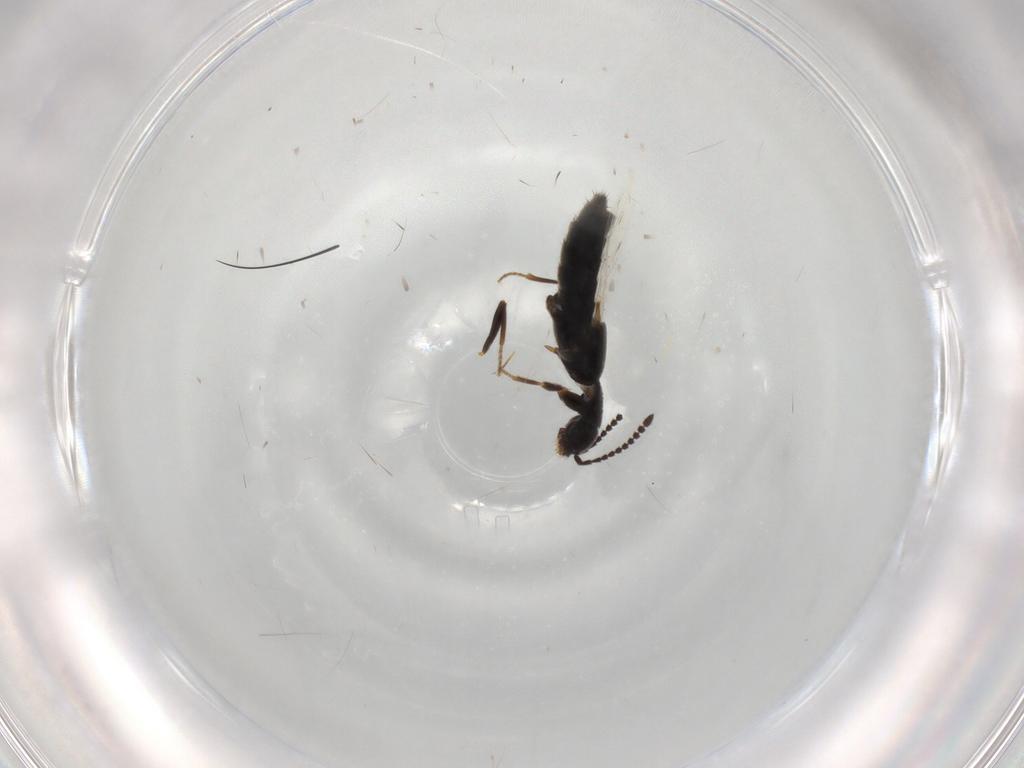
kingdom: Animalia
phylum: Arthropoda
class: Insecta
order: Coleoptera
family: Staphylinidae
